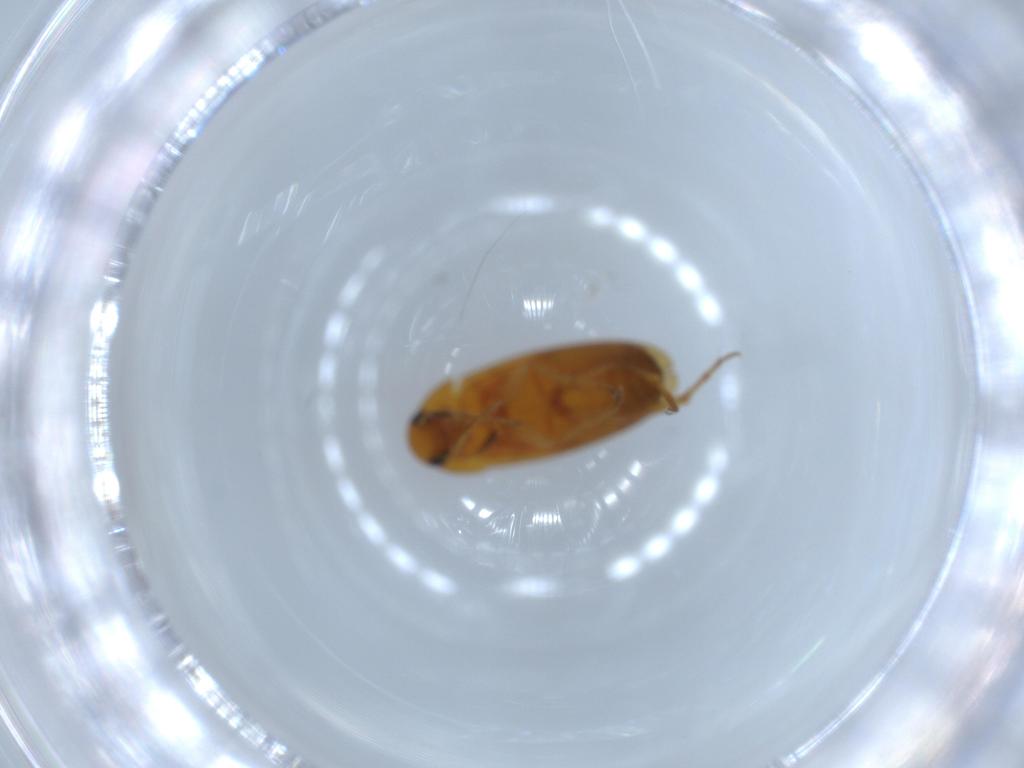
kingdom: Animalia
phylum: Arthropoda
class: Insecta
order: Coleoptera
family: Scraptiidae
